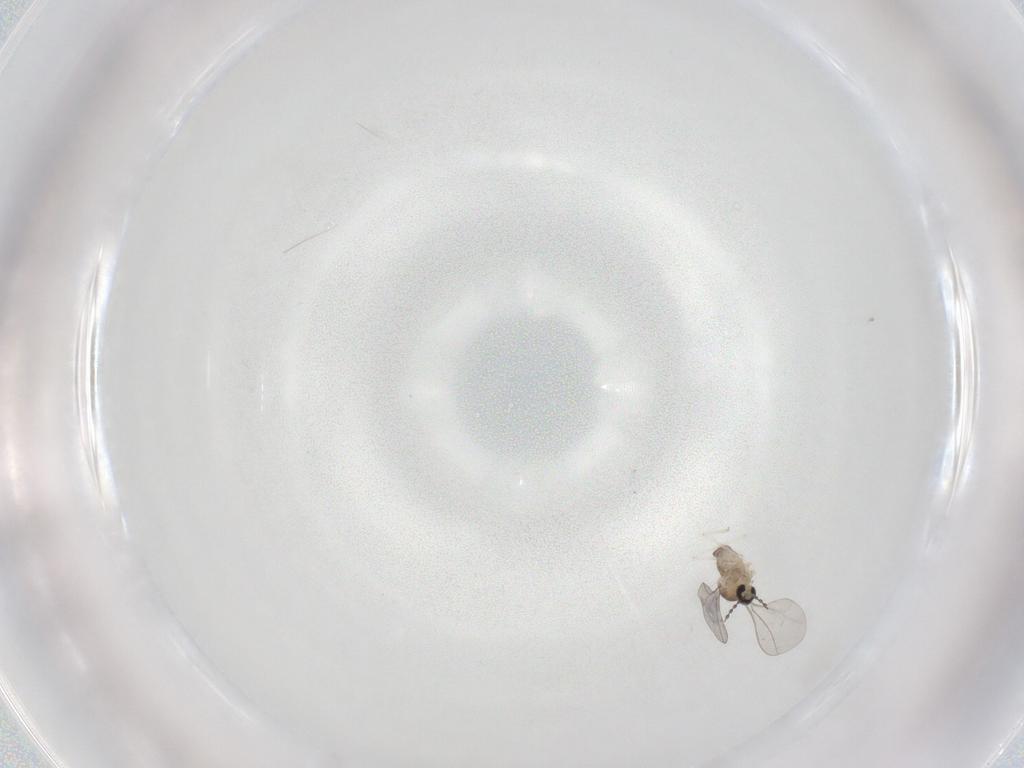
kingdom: Animalia
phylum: Arthropoda
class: Insecta
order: Diptera
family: Cecidomyiidae
